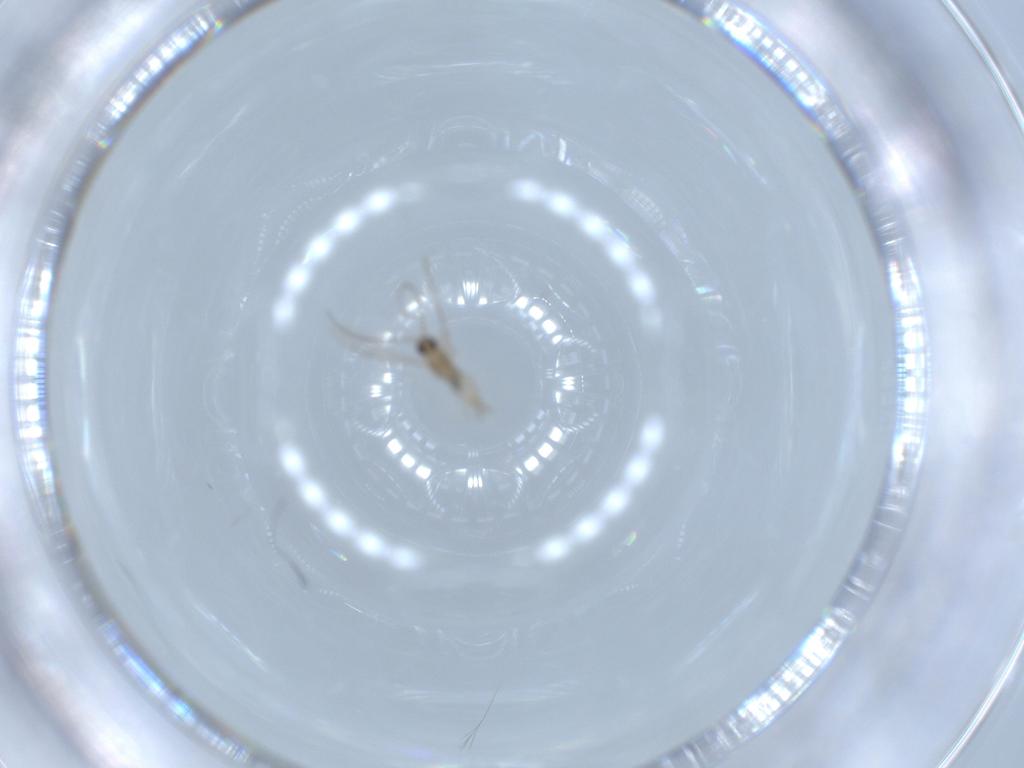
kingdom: Animalia
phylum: Arthropoda
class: Insecta
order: Diptera
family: Cecidomyiidae
